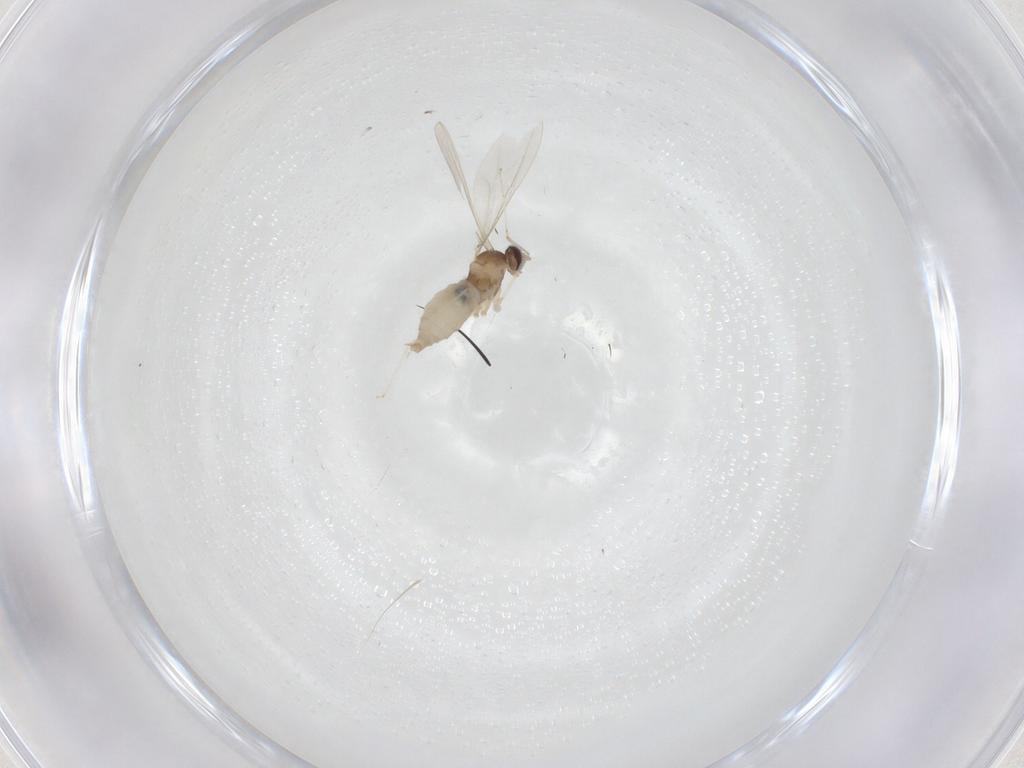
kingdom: Animalia
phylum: Arthropoda
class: Insecta
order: Diptera
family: Cecidomyiidae
